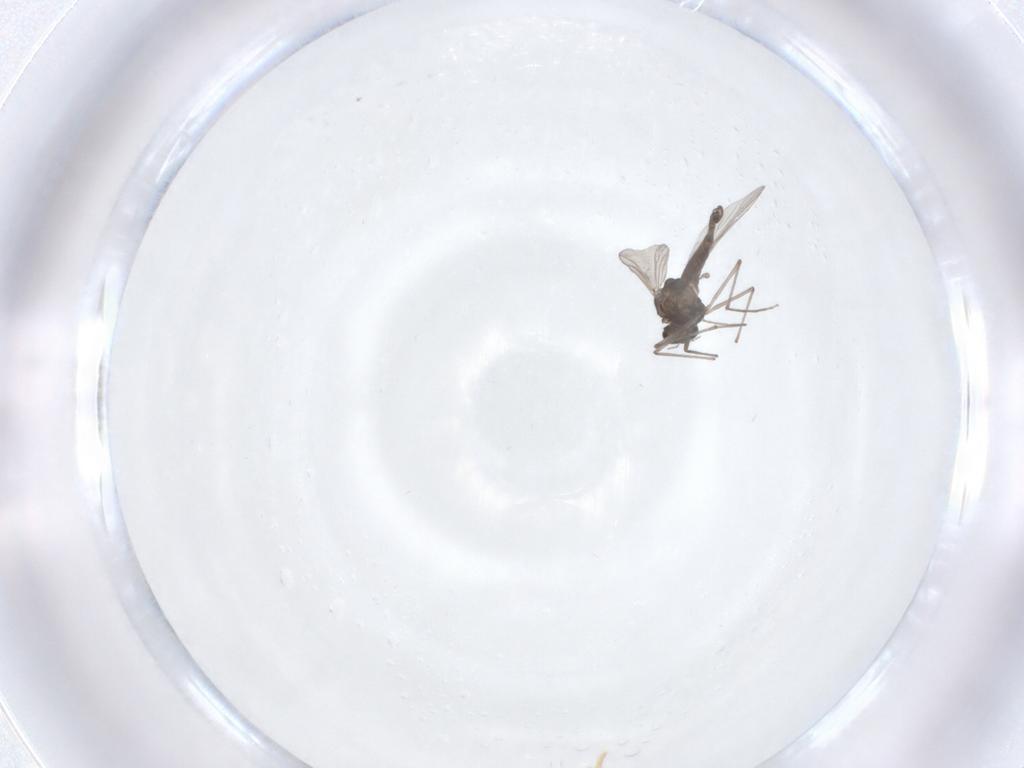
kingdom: Animalia
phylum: Arthropoda
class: Insecta
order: Diptera
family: Chironomidae
